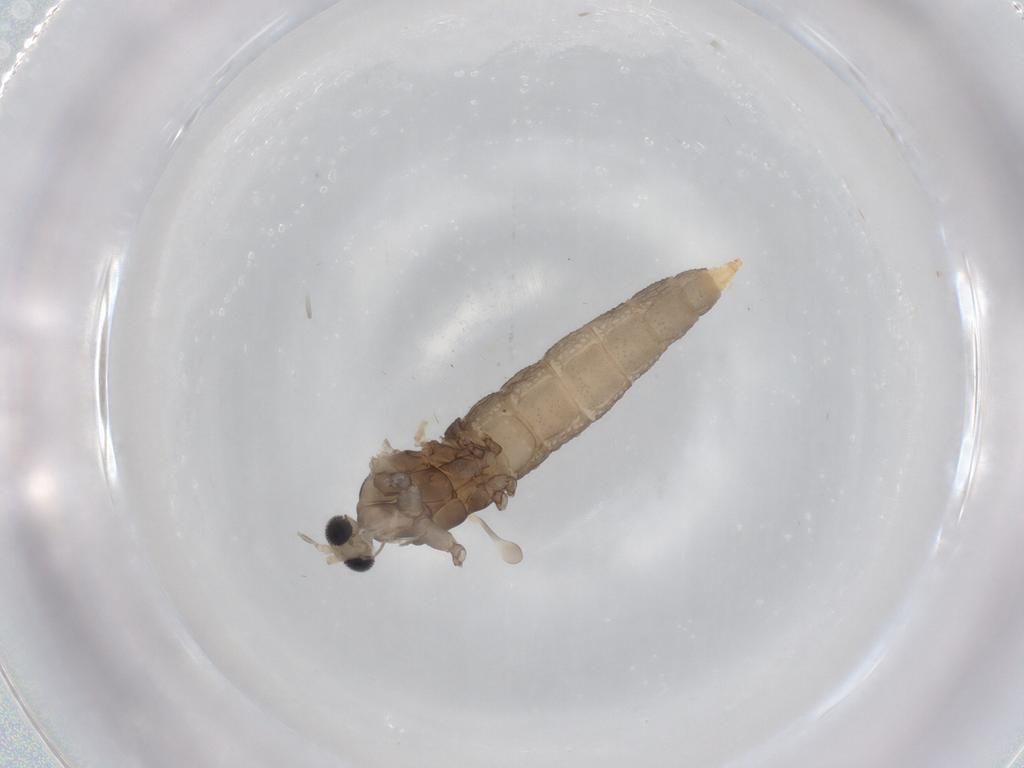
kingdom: Animalia
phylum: Arthropoda
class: Insecta
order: Diptera
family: Cecidomyiidae
